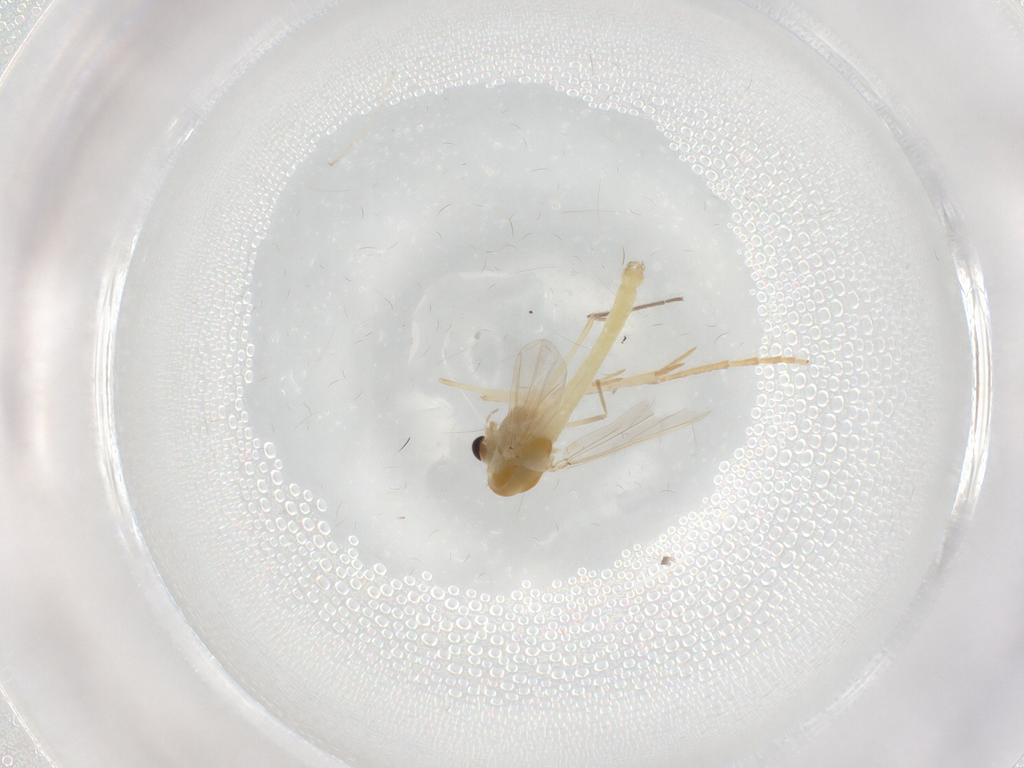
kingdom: Animalia
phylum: Arthropoda
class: Insecta
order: Diptera
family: Chironomidae
